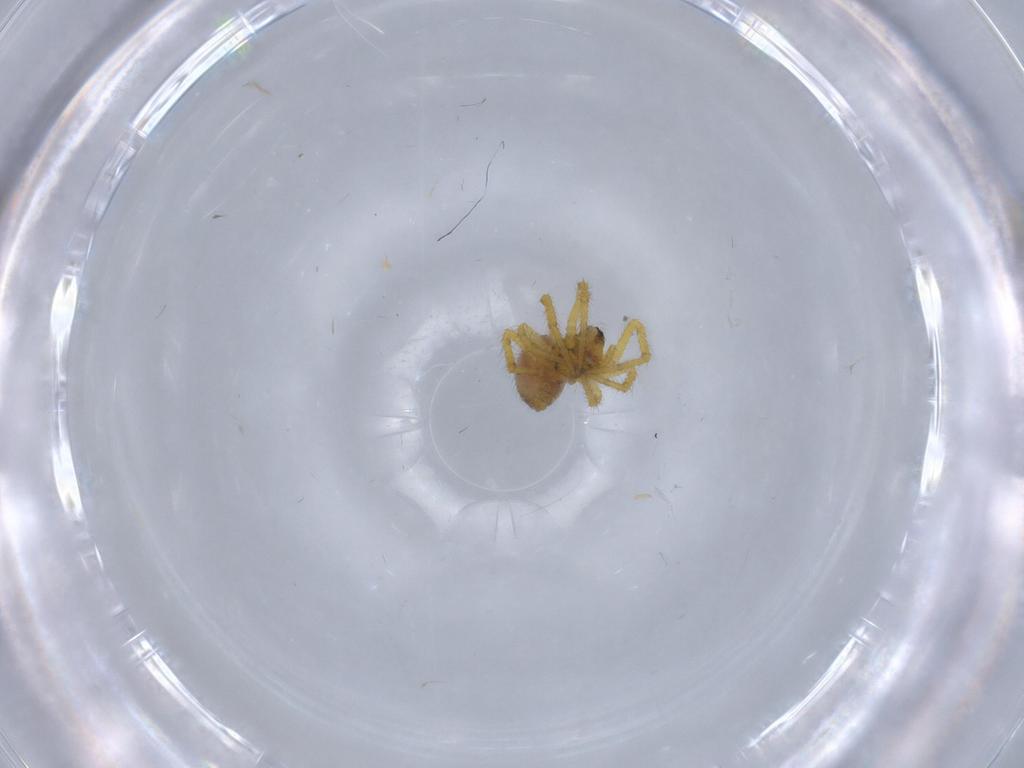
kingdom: Animalia
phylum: Arthropoda
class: Arachnida
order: Araneae
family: Theridiidae
